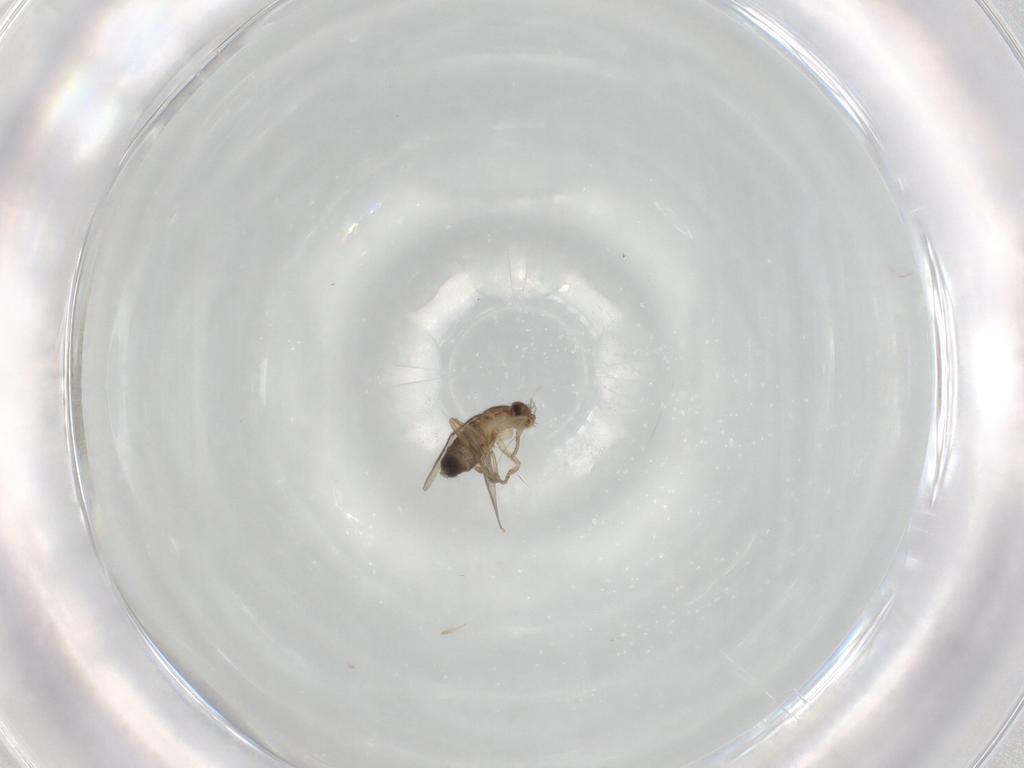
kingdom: Animalia
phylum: Arthropoda
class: Insecta
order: Diptera
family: Phoridae
